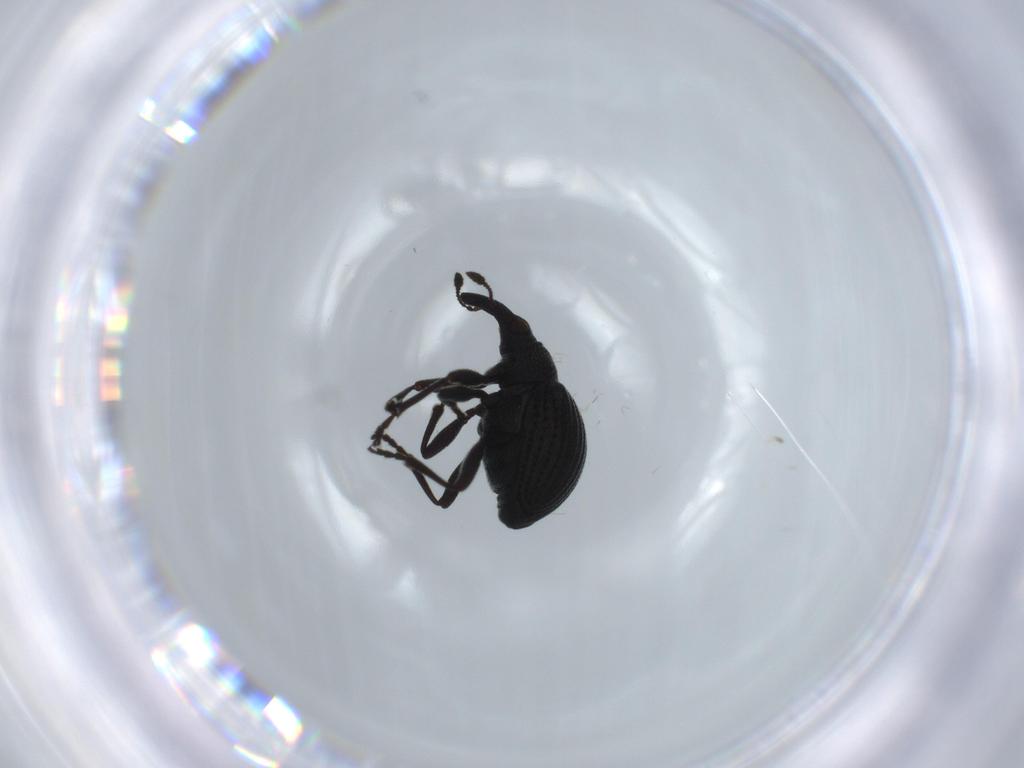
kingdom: Animalia
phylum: Arthropoda
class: Insecta
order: Coleoptera
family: Brentidae
